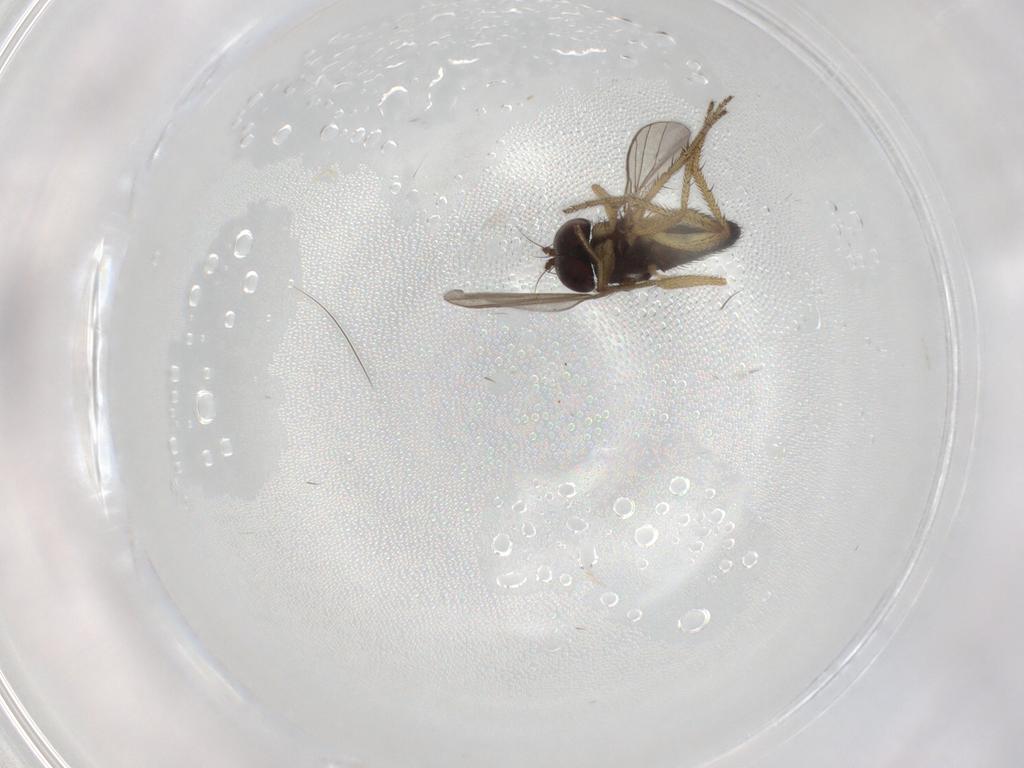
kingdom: Animalia
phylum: Arthropoda
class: Insecta
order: Diptera
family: Dolichopodidae
